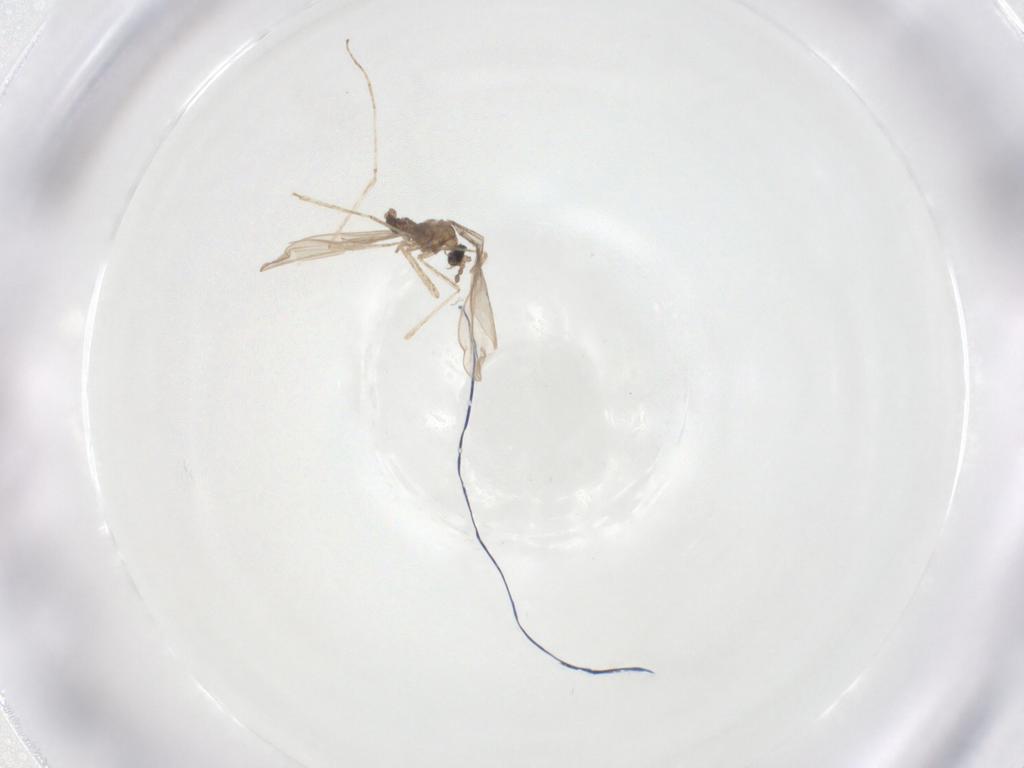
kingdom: Animalia
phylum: Arthropoda
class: Insecta
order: Diptera
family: Cecidomyiidae
